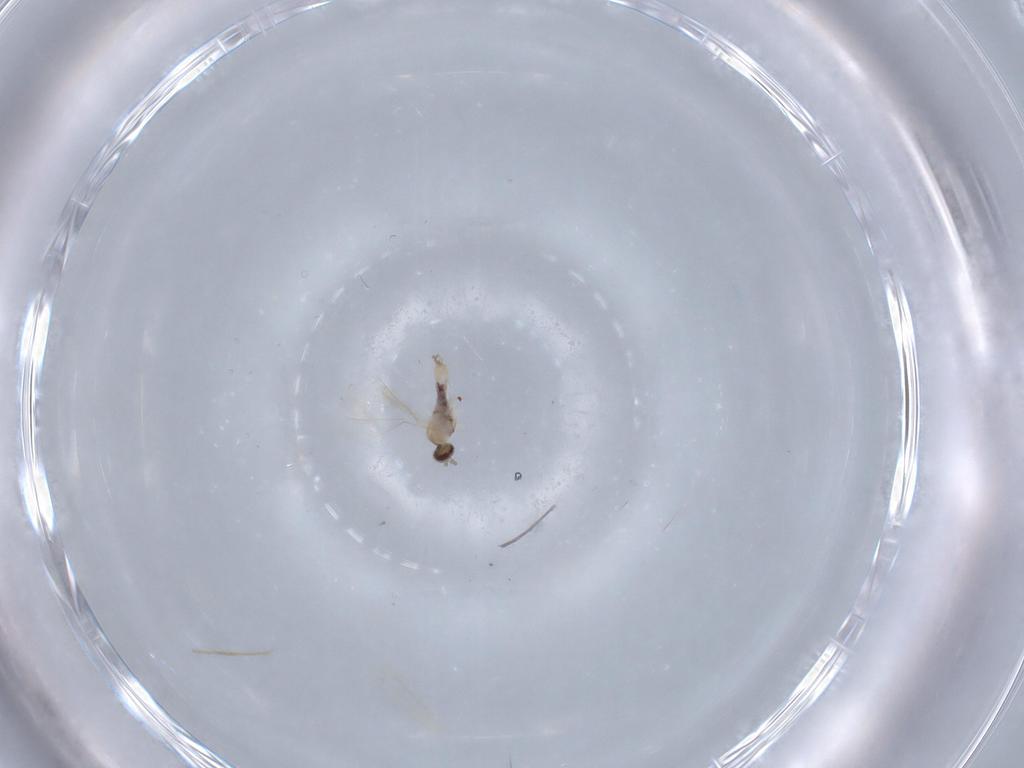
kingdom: Animalia
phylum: Arthropoda
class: Insecta
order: Diptera
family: Cecidomyiidae
